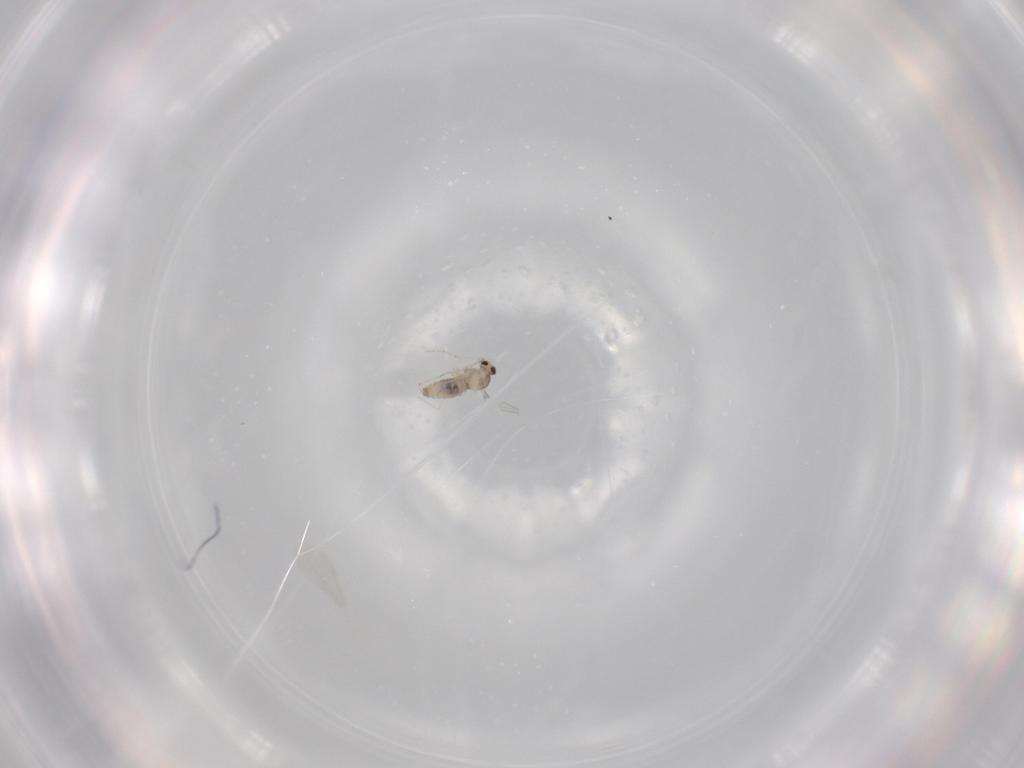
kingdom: Animalia
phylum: Arthropoda
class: Insecta
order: Diptera
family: Cecidomyiidae
